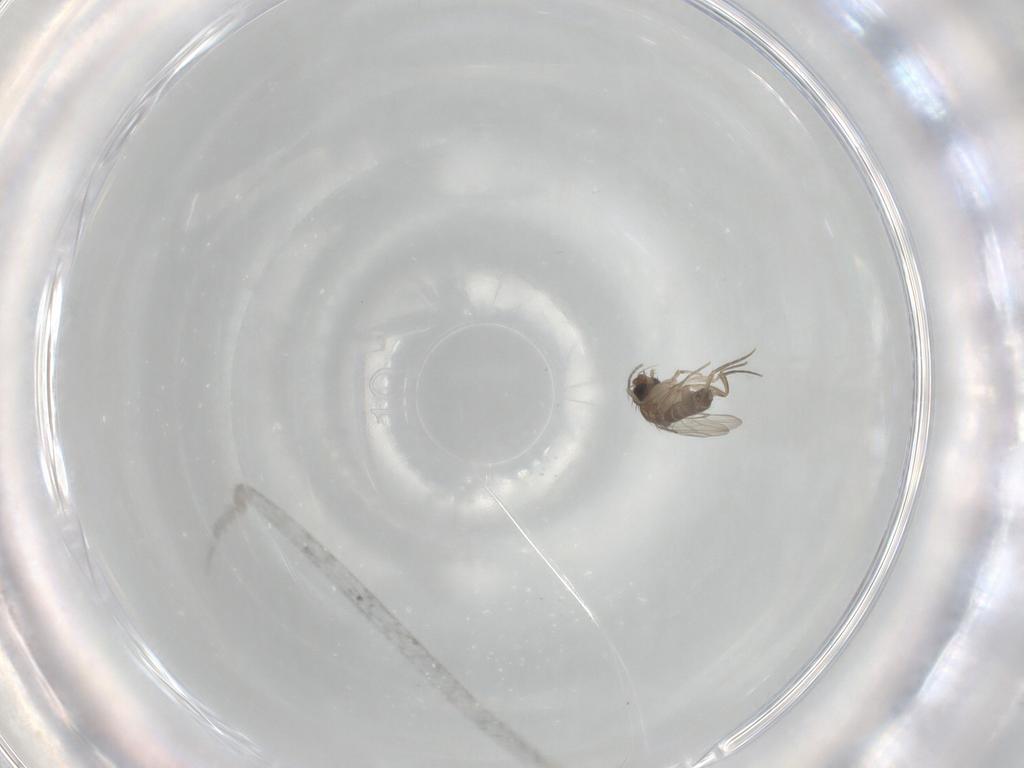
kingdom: Animalia
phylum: Arthropoda
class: Insecta
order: Diptera
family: Phoridae
